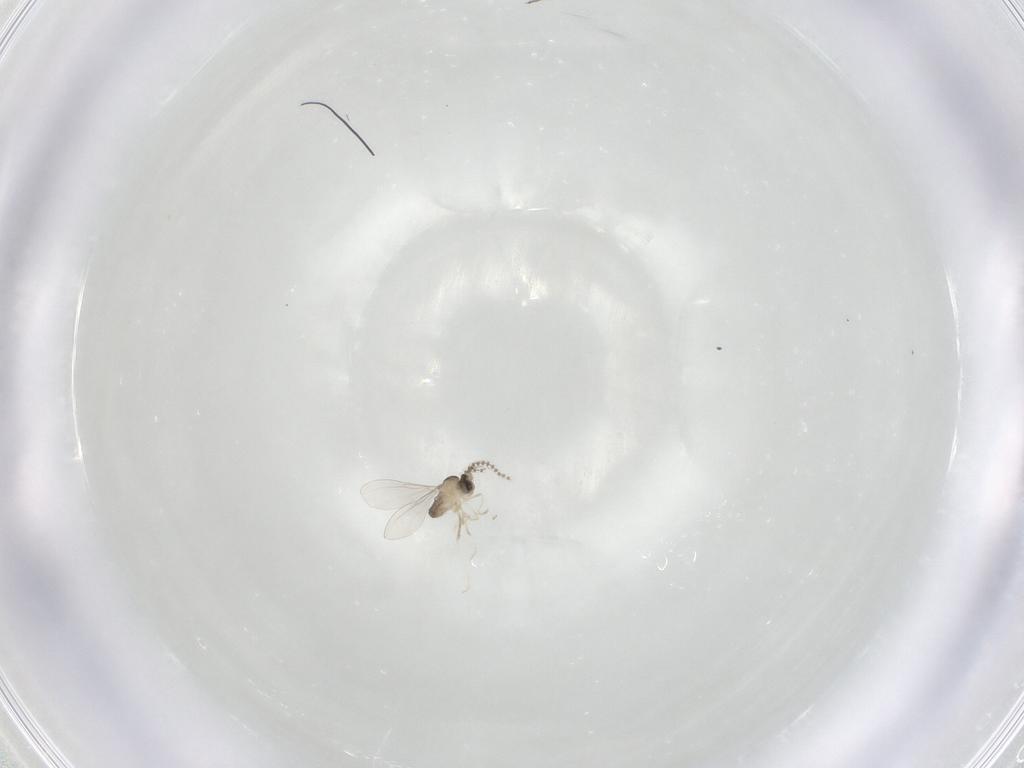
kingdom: Animalia
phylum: Arthropoda
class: Insecta
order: Diptera
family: Cecidomyiidae
